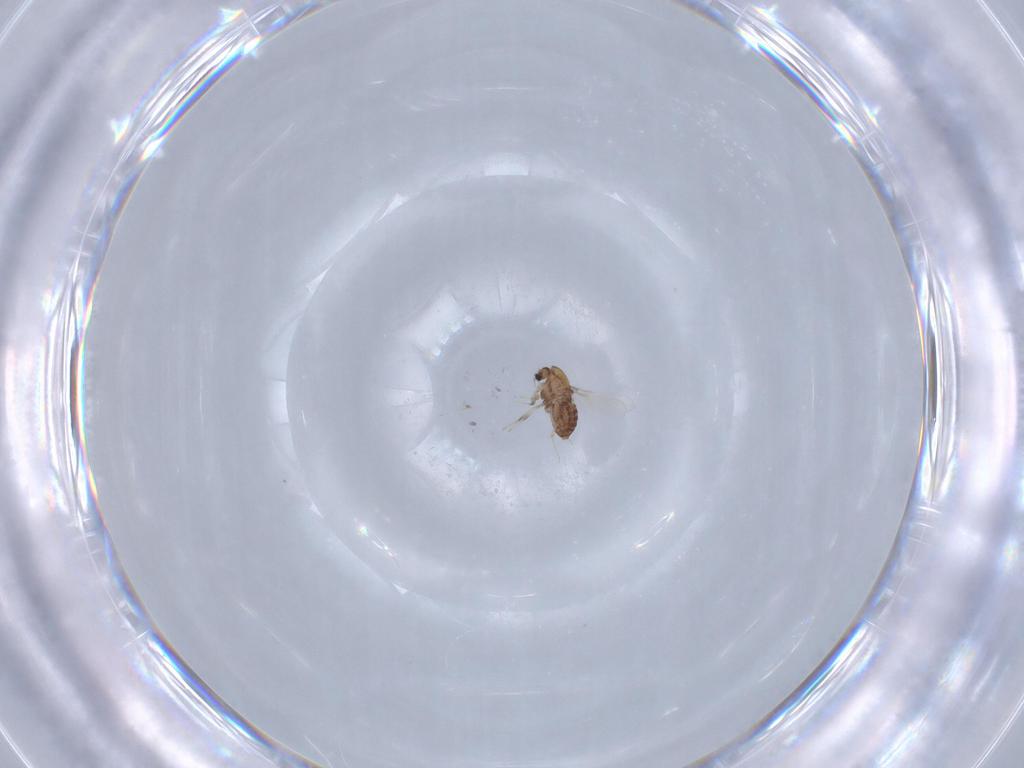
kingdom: Animalia
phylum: Arthropoda
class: Insecta
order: Diptera
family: Chironomidae
